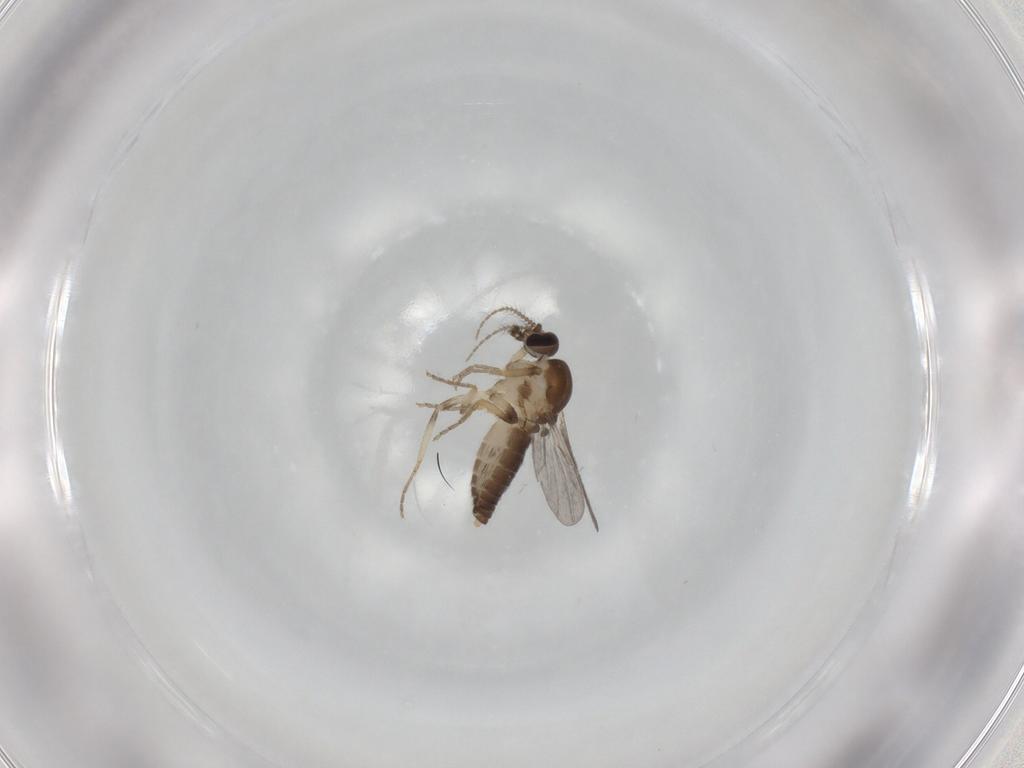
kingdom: Animalia
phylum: Arthropoda
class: Insecta
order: Diptera
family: Ceratopogonidae
